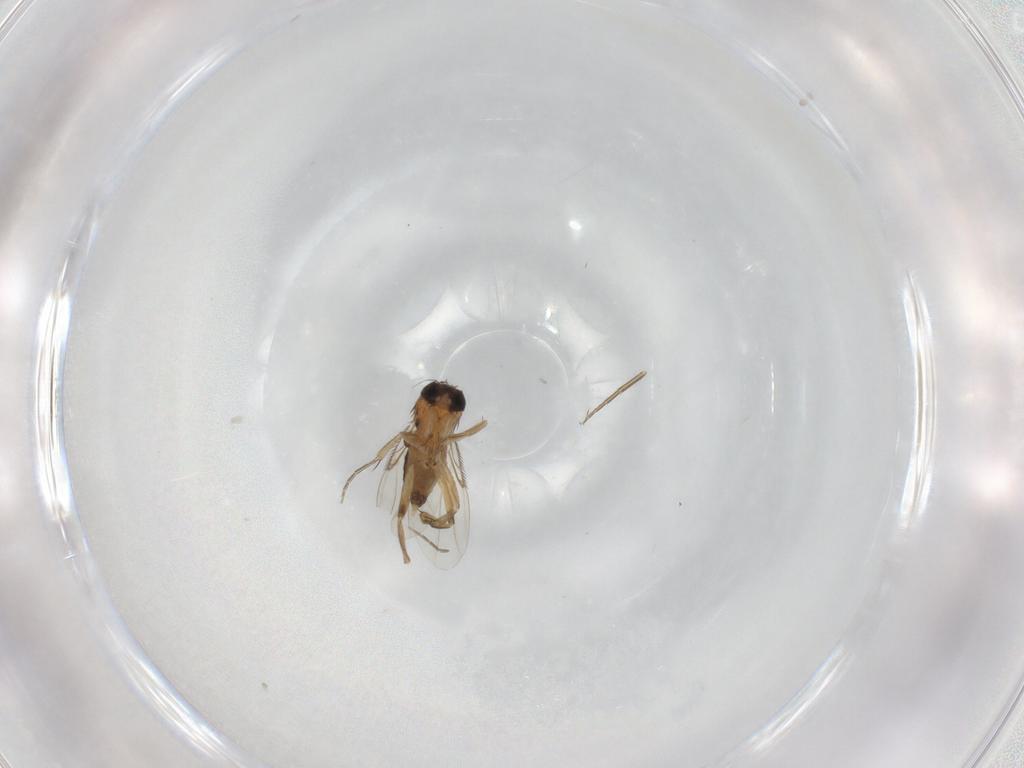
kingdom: Animalia
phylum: Arthropoda
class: Insecta
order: Diptera
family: Phoridae
